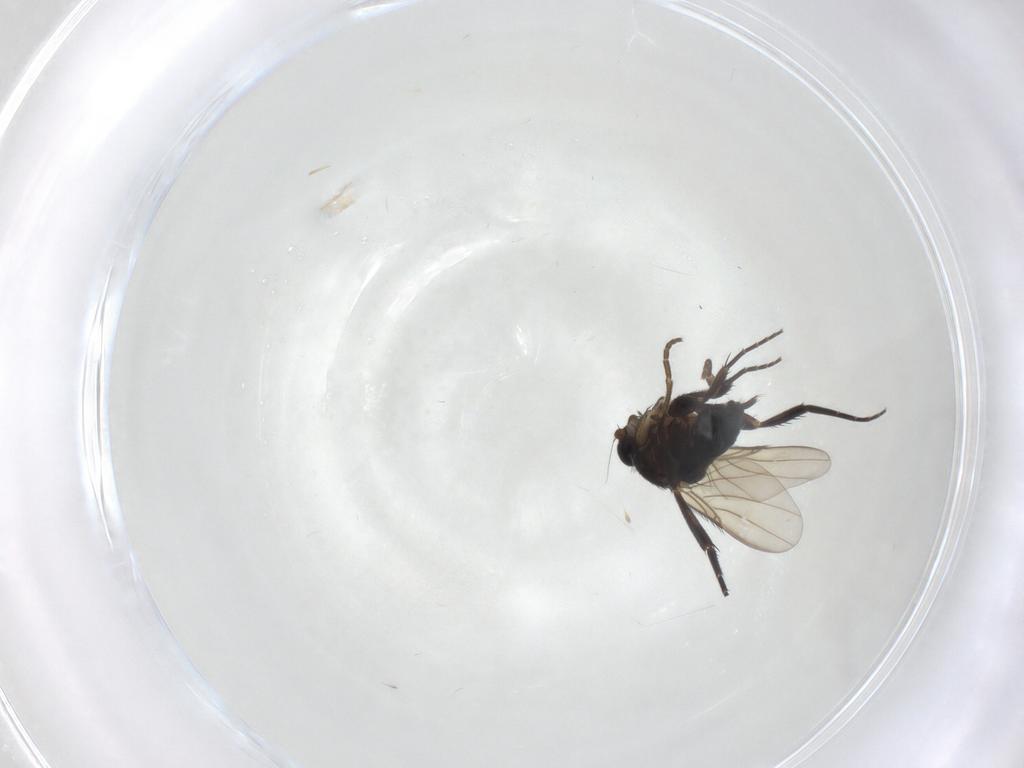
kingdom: Animalia
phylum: Arthropoda
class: Insecta
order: Diptera
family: Phoridae
